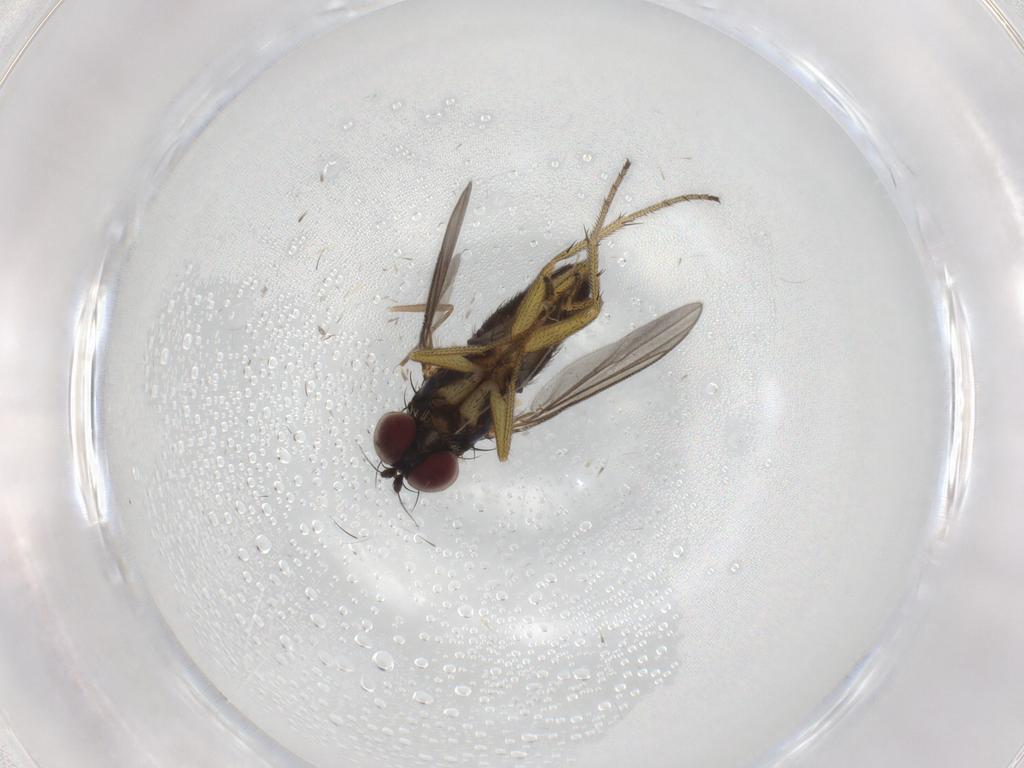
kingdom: Animalia
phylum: Arthropoda
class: Insecta
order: Diptera
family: Dolichopodidae
